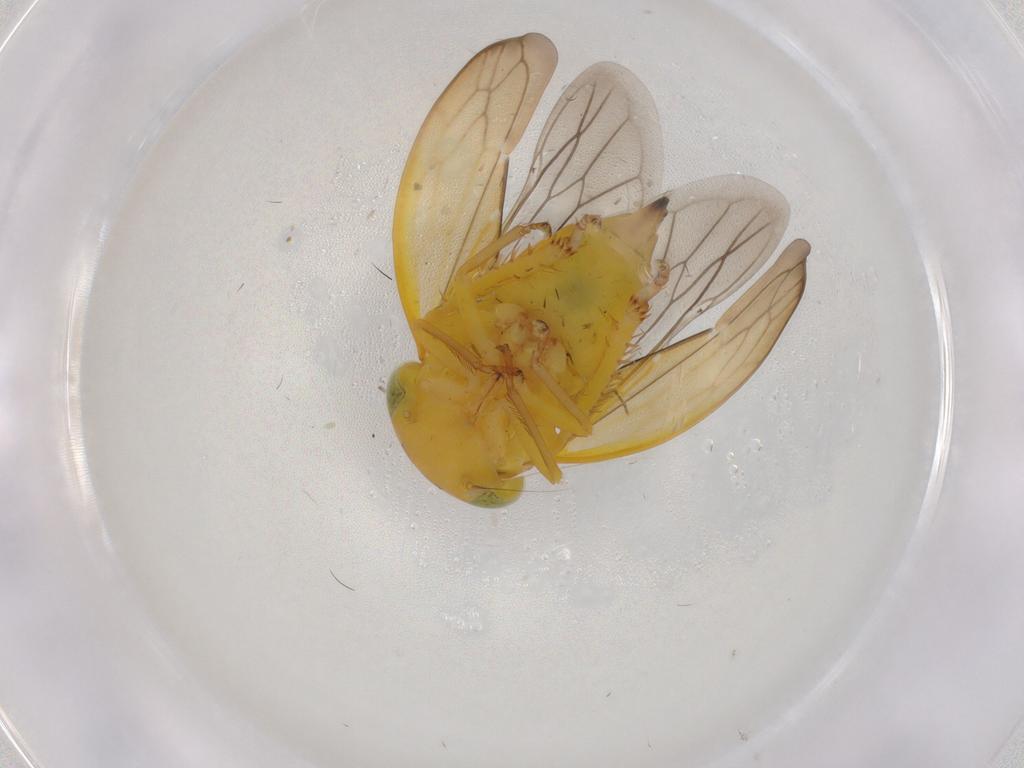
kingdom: Animalia
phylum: Arthropoda
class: Insecta
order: Hemiptera
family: Cicadellidae
